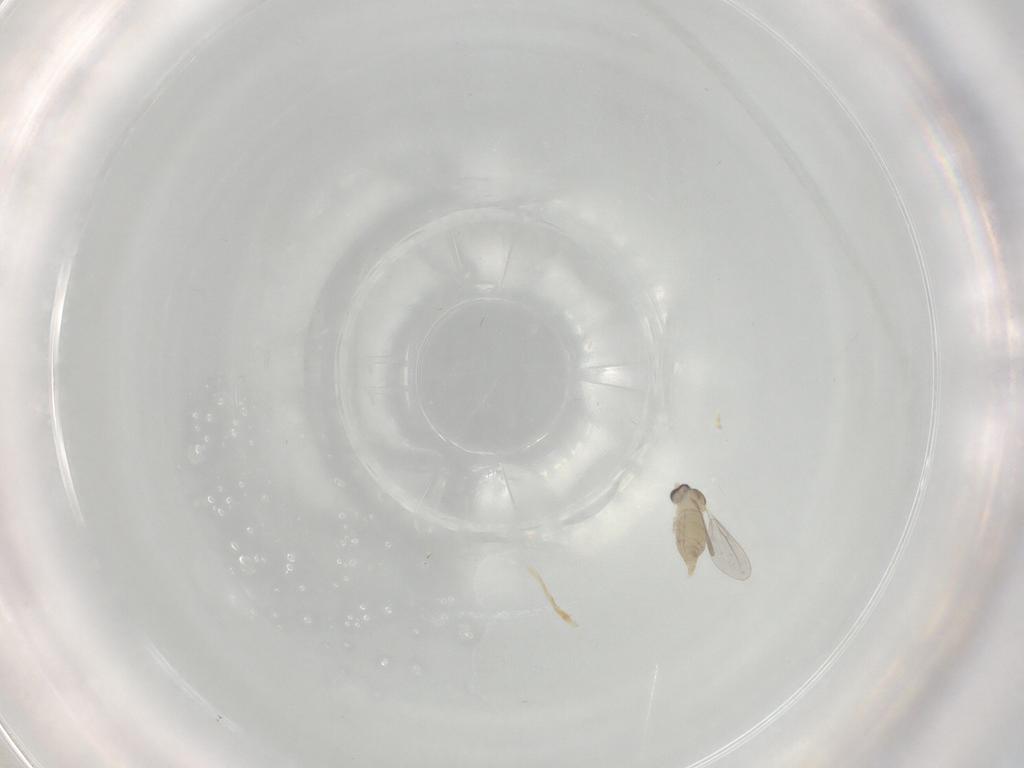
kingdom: Animalia
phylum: Arthropoda
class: Insecta
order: Diptera
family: Cecidomyiidae
